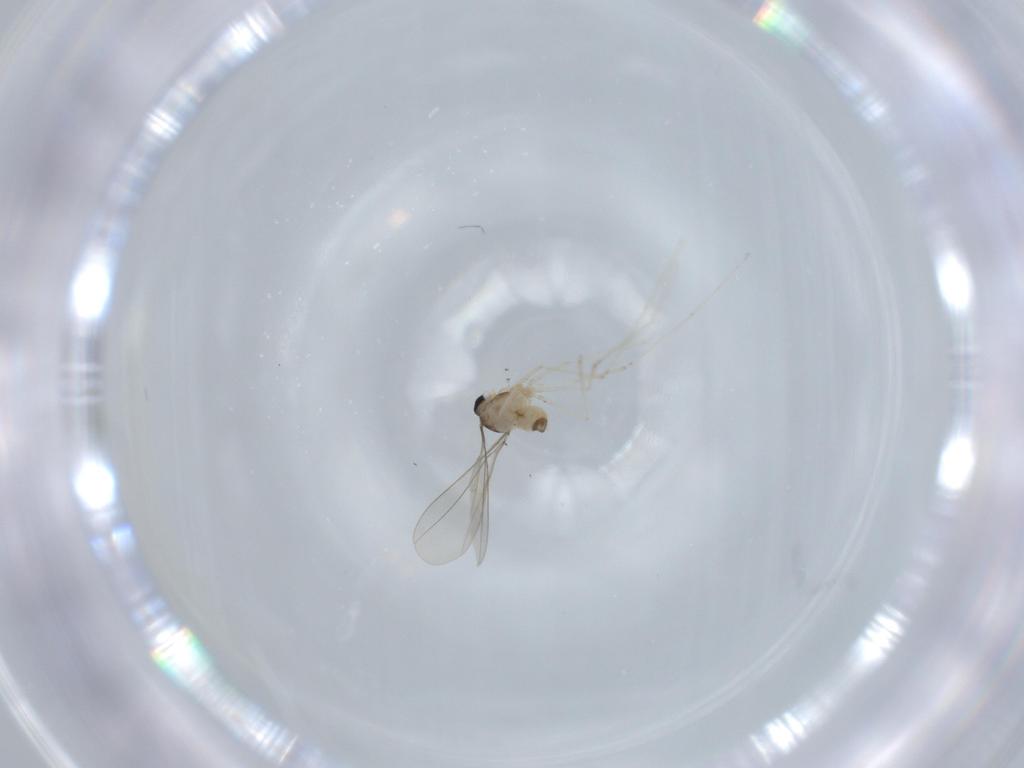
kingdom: Animalia
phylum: Arthropoda
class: Insecta
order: Diptera
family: Cecidomyiidae
